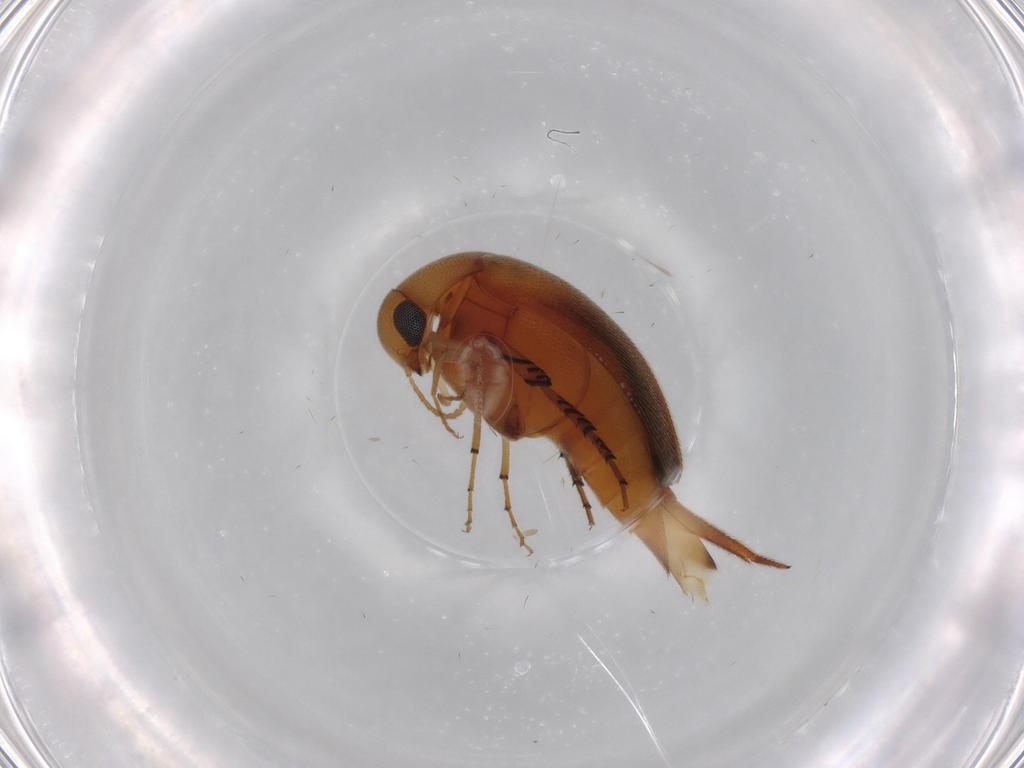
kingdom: Animalia
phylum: Arthropoda
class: Insecta
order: Coleoptera
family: Mordellidae
